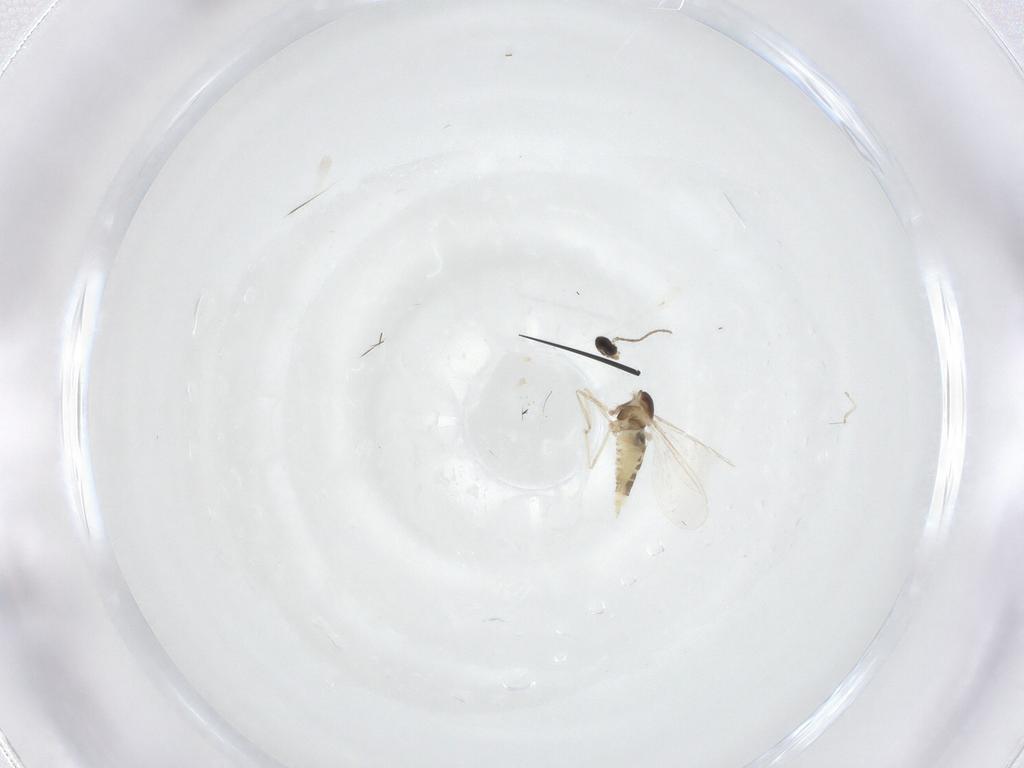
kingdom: Animalia
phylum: Arthropoda
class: Insecta
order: Diptera
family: Cecidomyiidae
